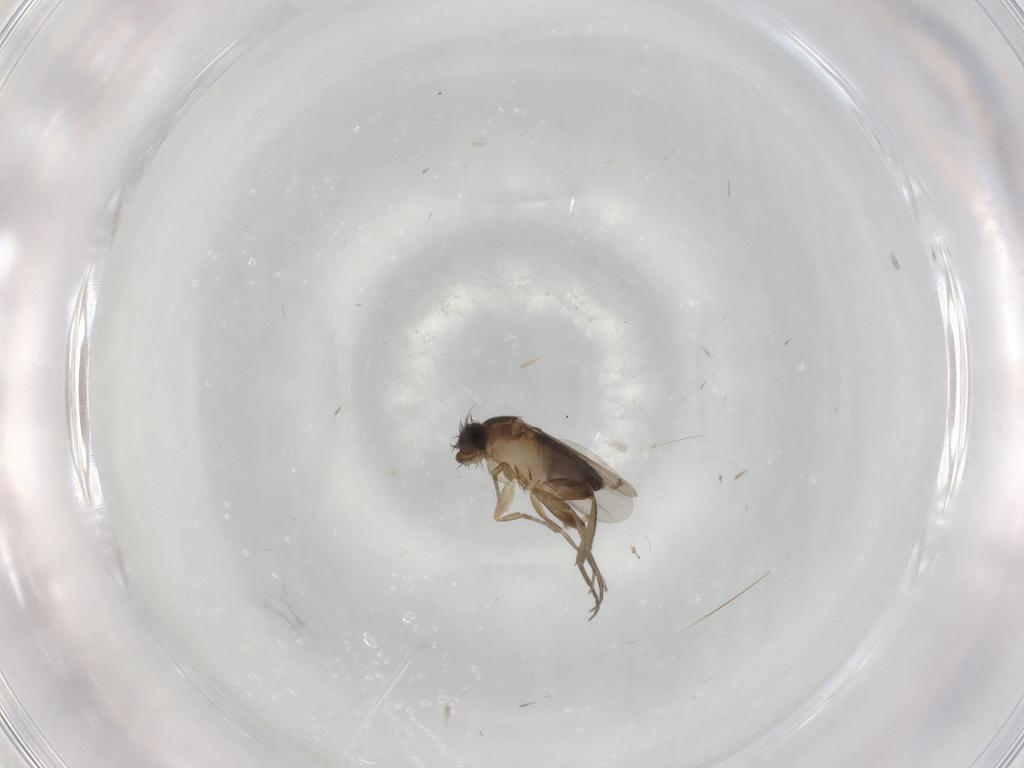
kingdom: Animalia
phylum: Arthropoda
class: Insecta
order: Diptera
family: Phoridae
